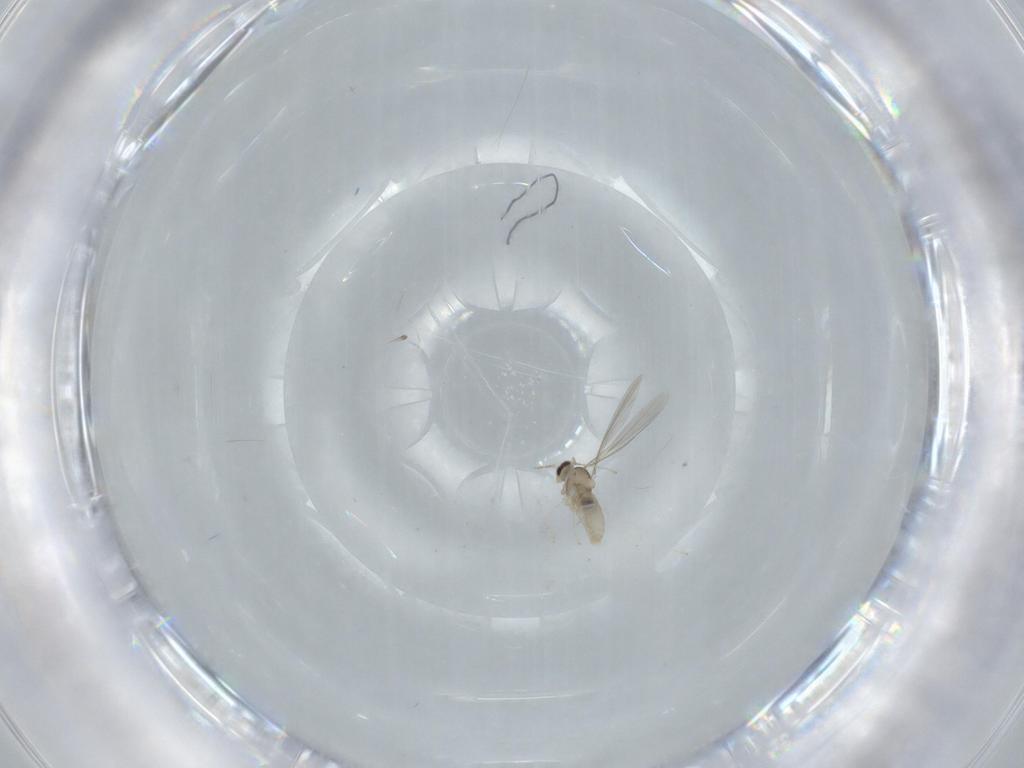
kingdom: Animalia
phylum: Arthropoda
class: Insecta
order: Diptera
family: Cecidomyiidae
